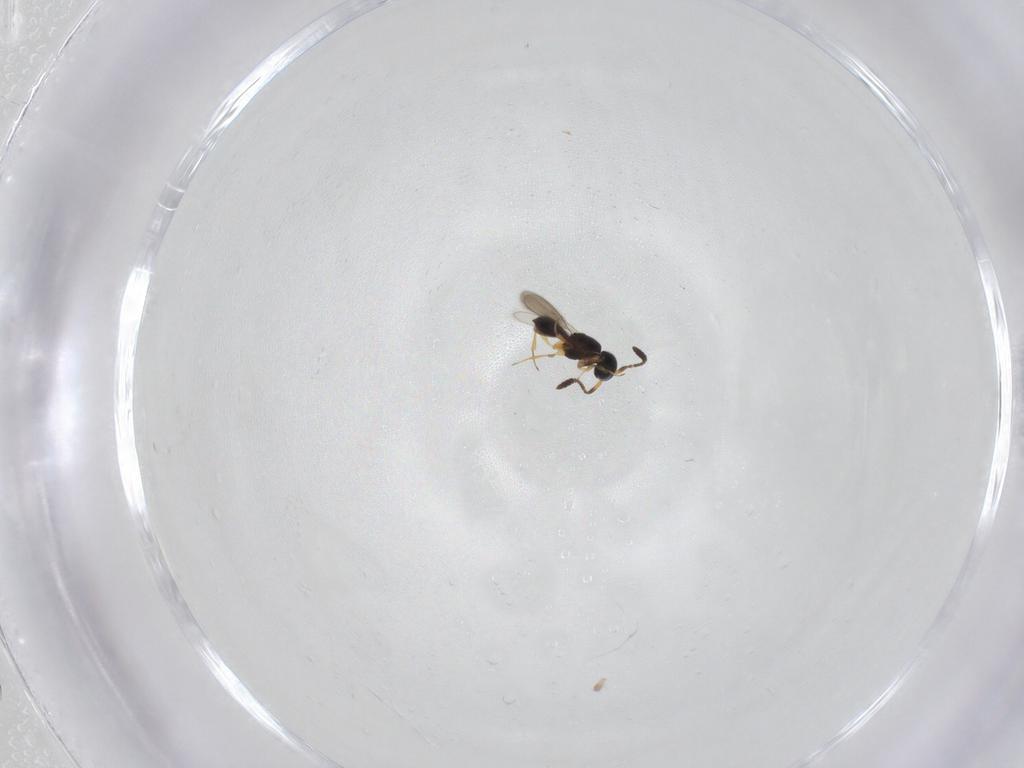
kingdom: Animalia
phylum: Arthropoda
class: Insecta
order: Hymenoptera
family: Scelionidae
